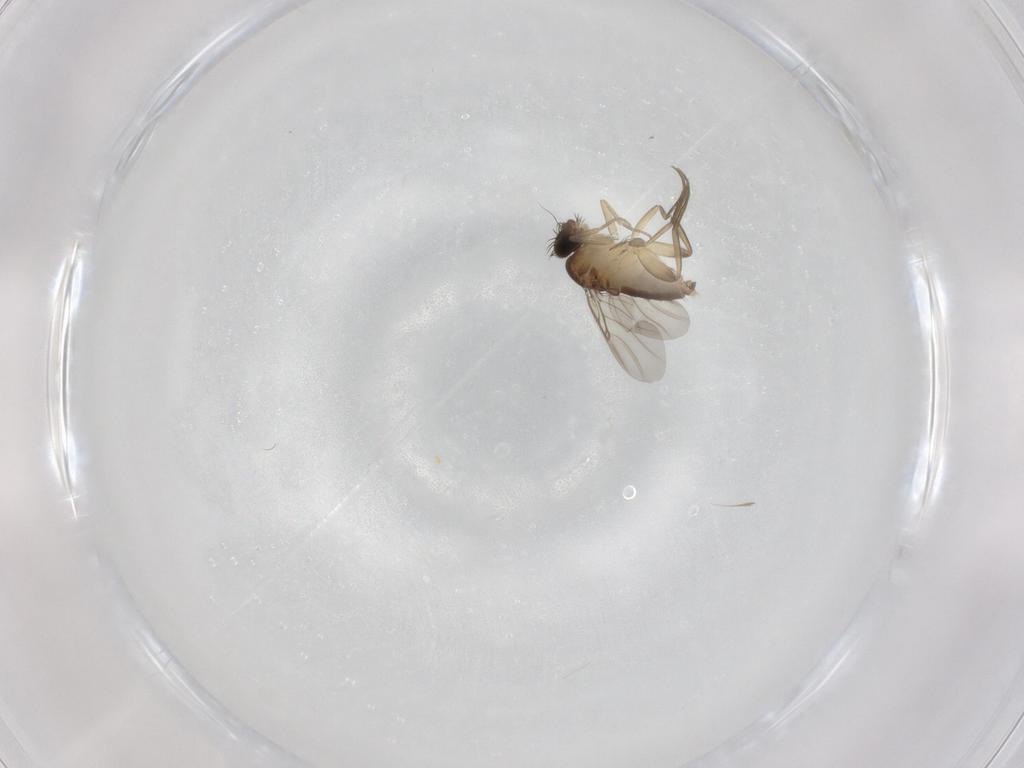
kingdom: Animalia
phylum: Arthropoda
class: Insecta
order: Diptera
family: Phoridae
